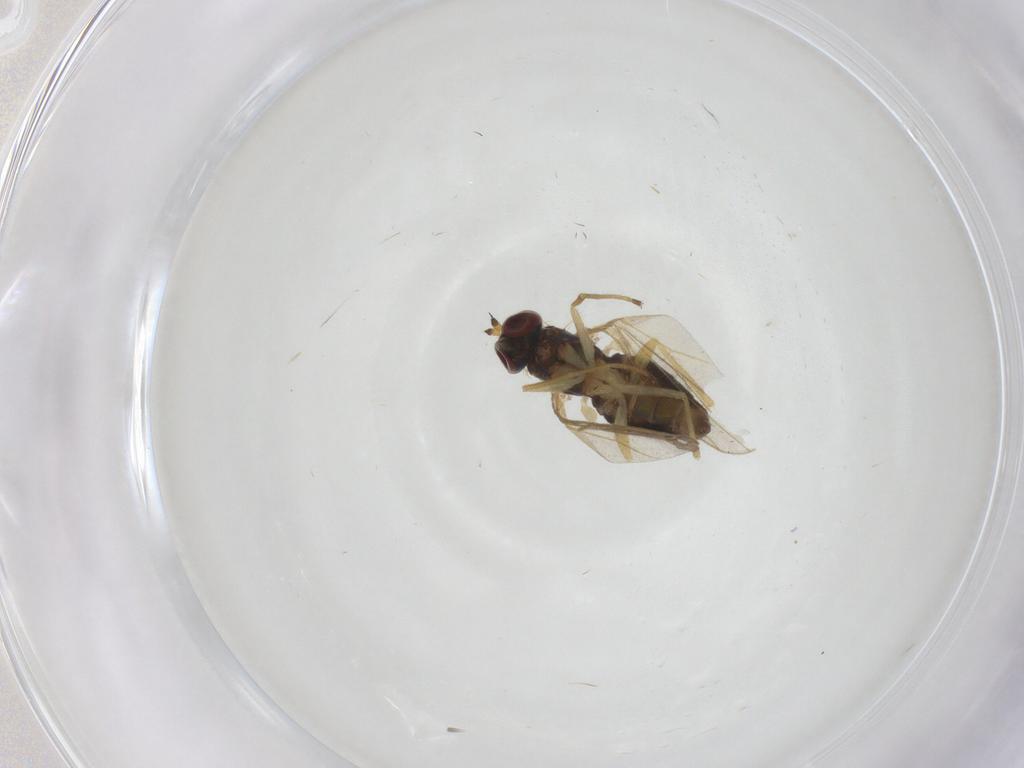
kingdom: Animalia
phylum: Arthropoda
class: Insecta
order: Diptera
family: Dolichopodidae
